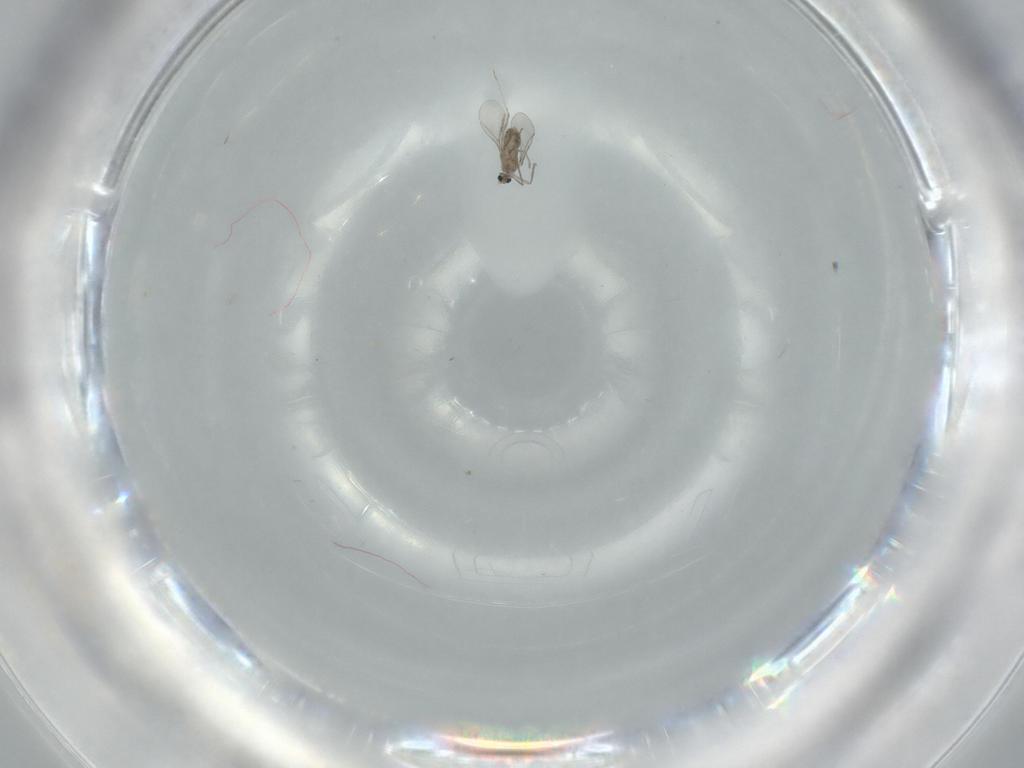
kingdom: Animalia
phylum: Arthropoda
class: Insecta
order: Diptera
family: Cecidomyiidae
